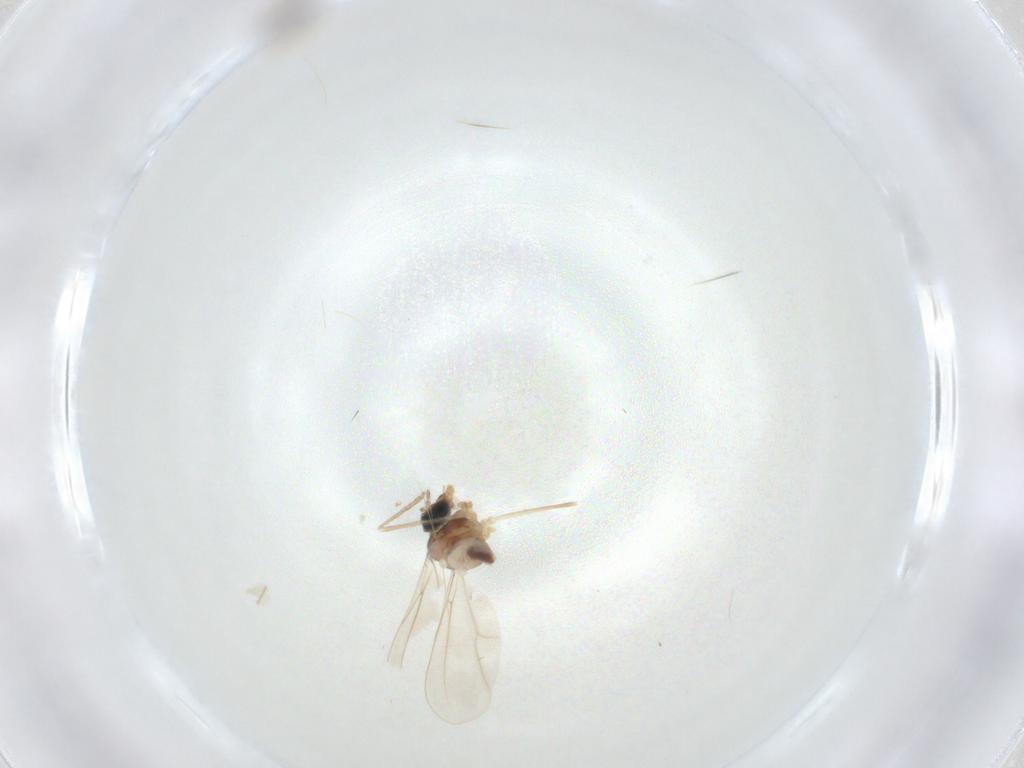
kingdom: Animalia
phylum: Arthropoda
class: Insecta
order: Diptera
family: Cecidomyiidae
